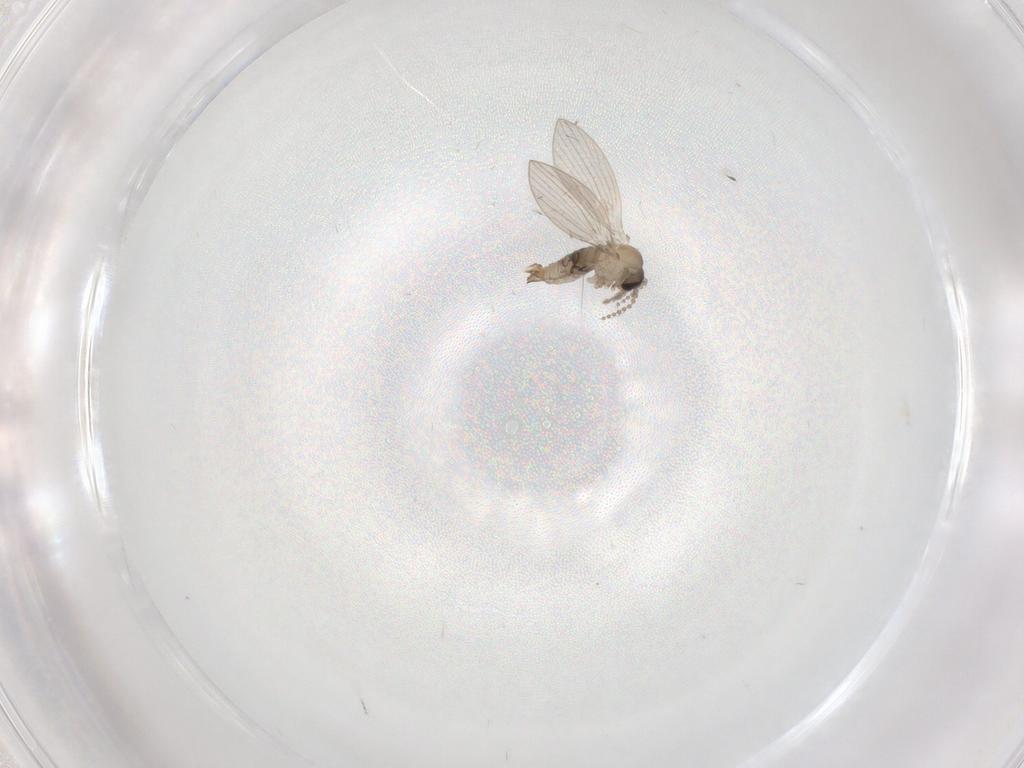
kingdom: Animalia
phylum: Arthropoda
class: Insecta
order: Diptera
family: Psychodidae
